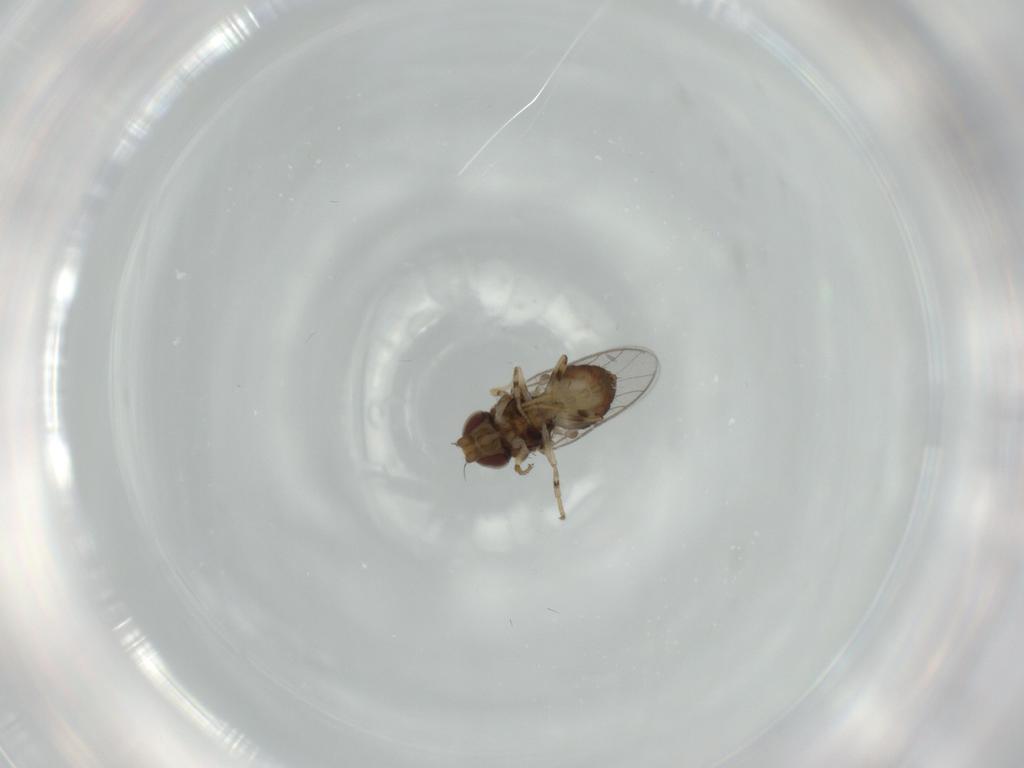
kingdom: Animalia
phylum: Arthropoda
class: Insecta
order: Diptera
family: Chloropidae
